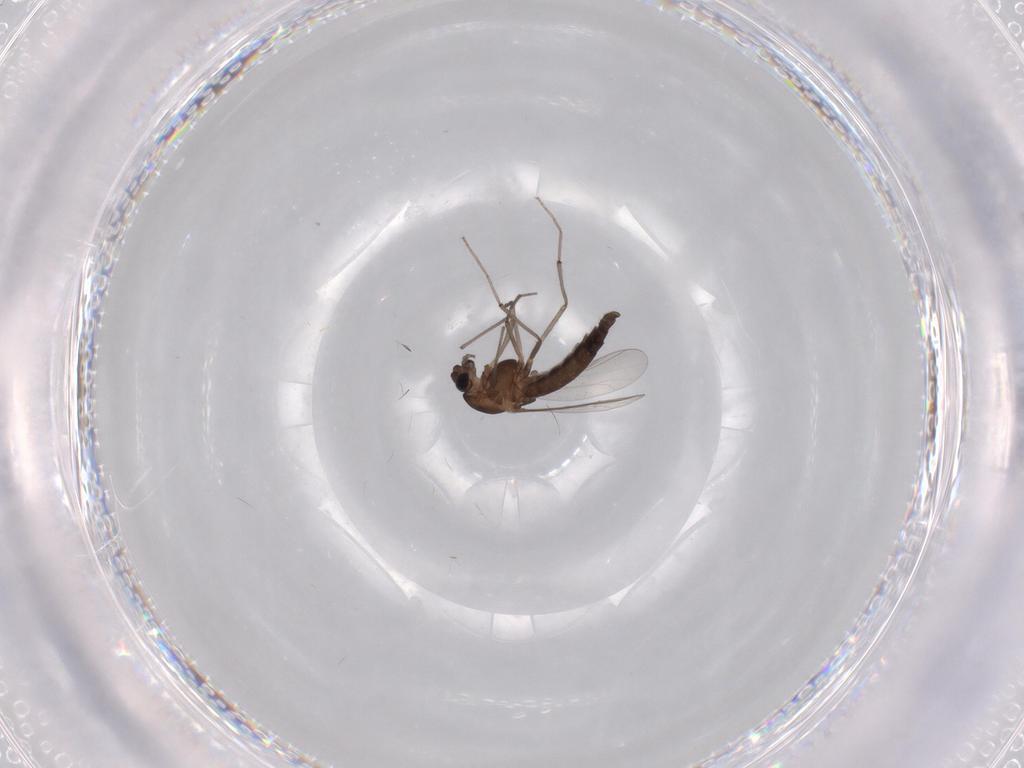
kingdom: Animalia
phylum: Arthropoda
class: Insecta
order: Diptera
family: Chironomidae
